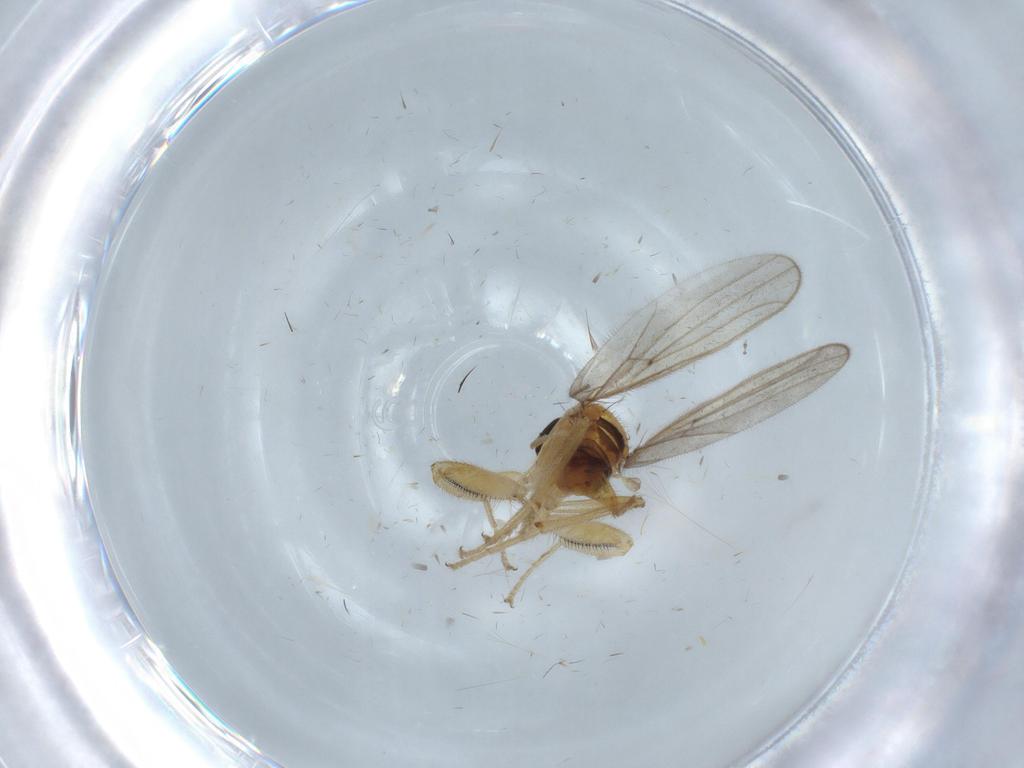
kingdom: Animalia
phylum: Arthropoda
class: Insecta
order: Diptera
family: Hybotidae
